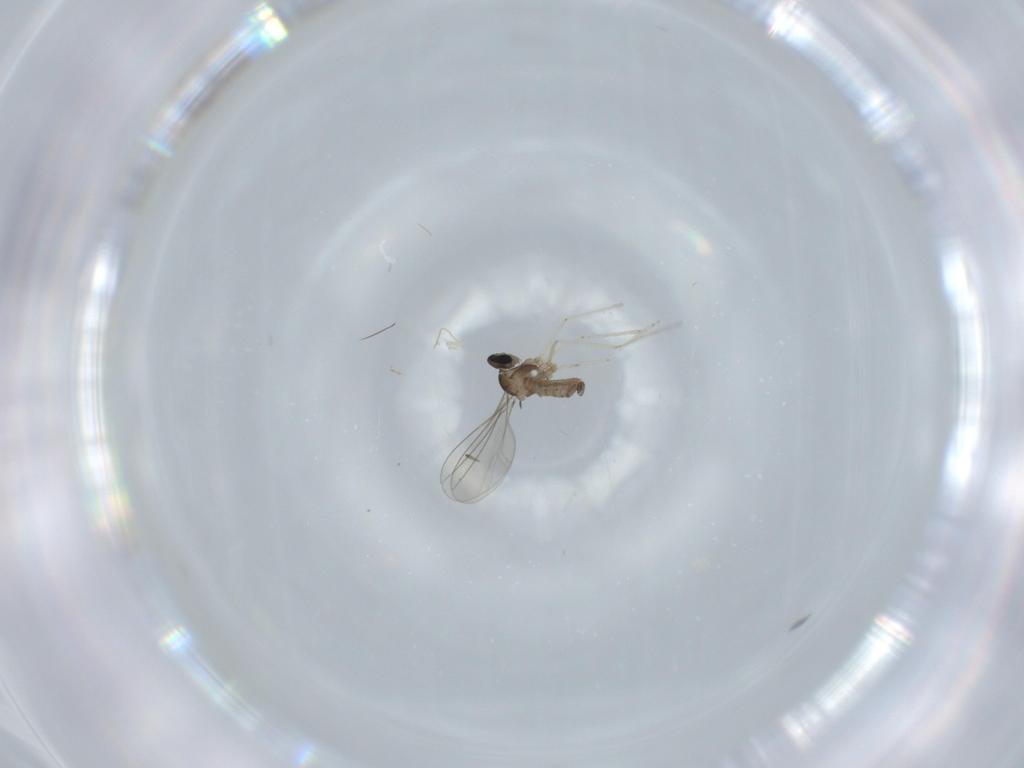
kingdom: Animalia
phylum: Arthropoda
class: Insecta
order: Diptera
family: Cecidomyiidae
